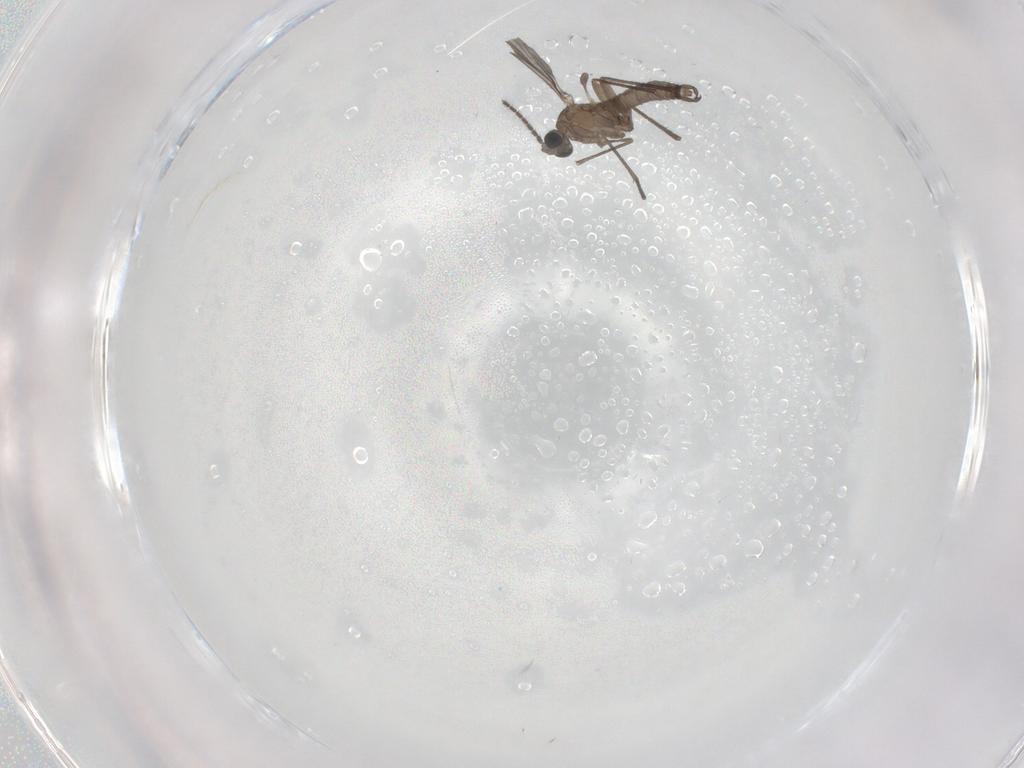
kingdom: Animalia
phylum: Arthropoda
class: Insecta
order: Diptera
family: Sciaridae
